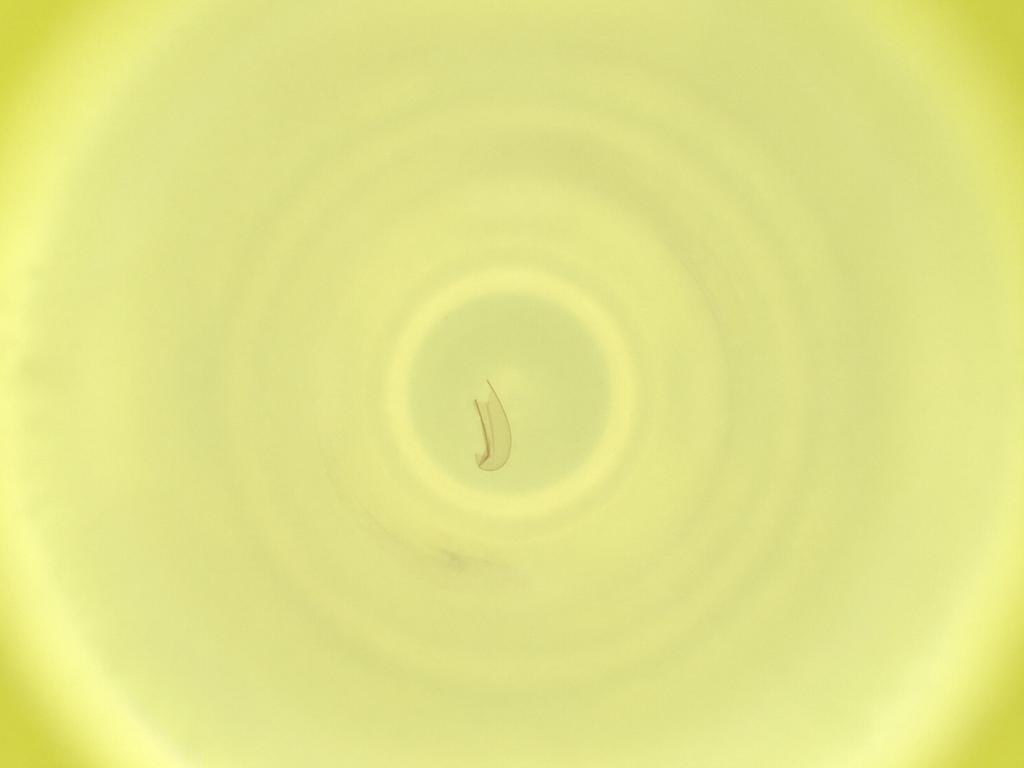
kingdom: Animalia
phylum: Arthropoda
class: Insecta
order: Diptera
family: Cecidomyiidae
